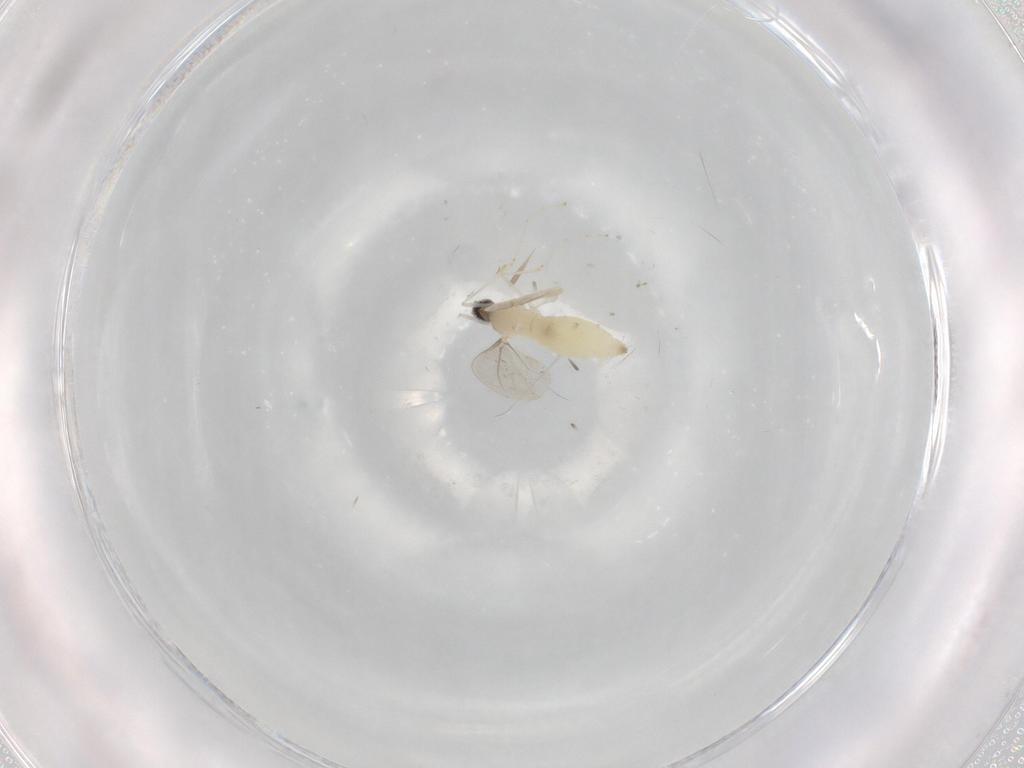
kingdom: Animalia
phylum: Arthropoda
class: Insecta
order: Diptera
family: Cecidomyiidae
